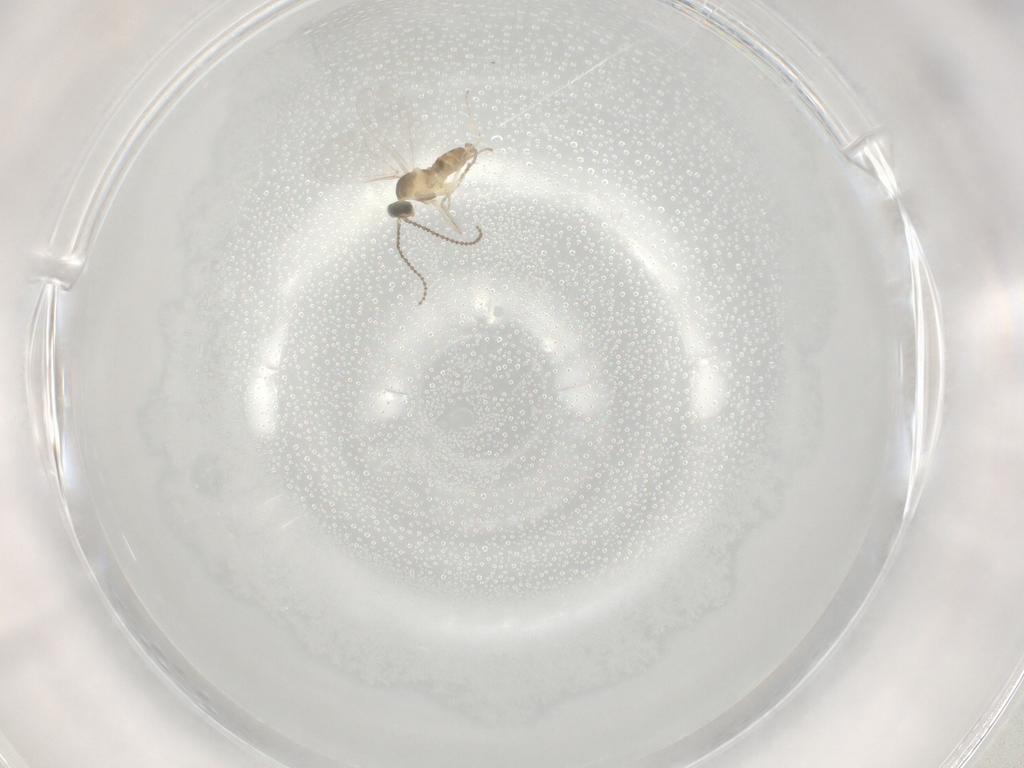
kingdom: Animalia
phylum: Arthropoda
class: Insecta
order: Diptera
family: Cecidomyiidae
